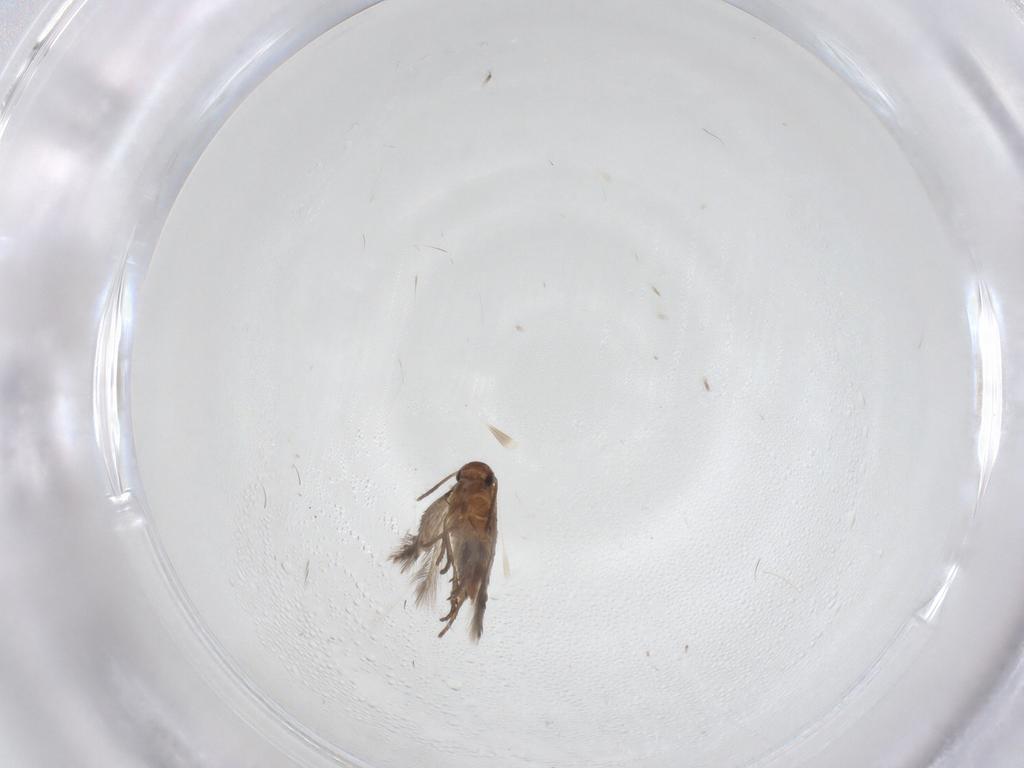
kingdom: Animalia
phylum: Arthropoda
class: Insecta
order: Lepidoptera
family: Heliozelidae
